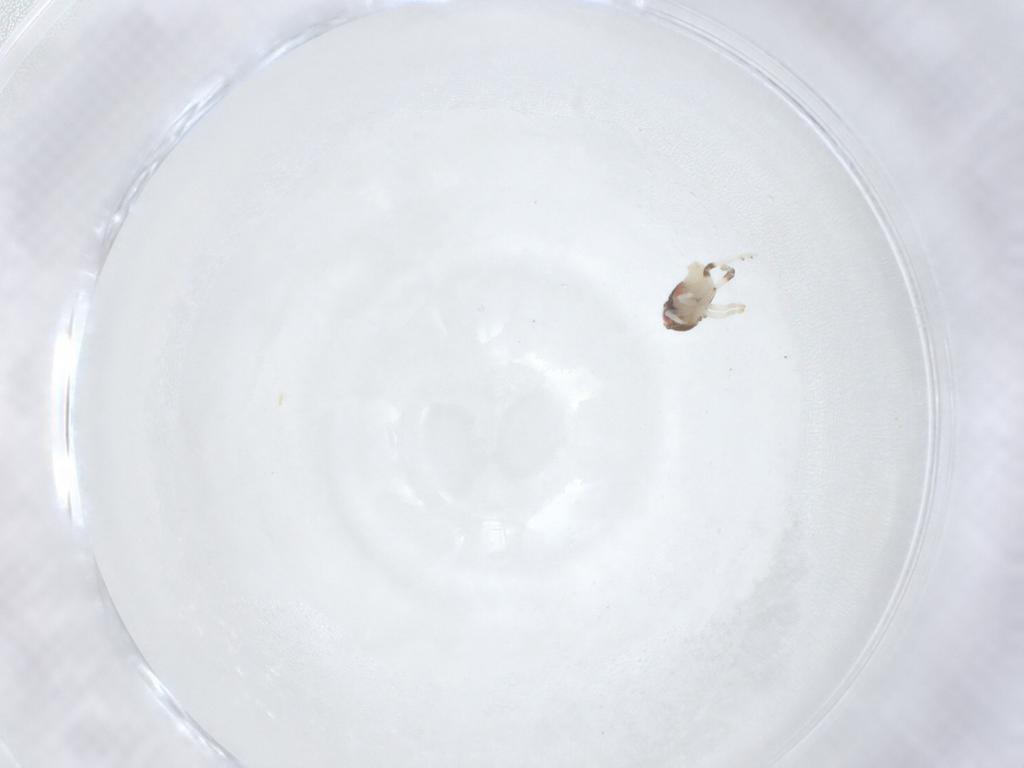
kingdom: Animalia
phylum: Arthropoda
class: Insecta
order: Hemiptera
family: Nogodinidae
